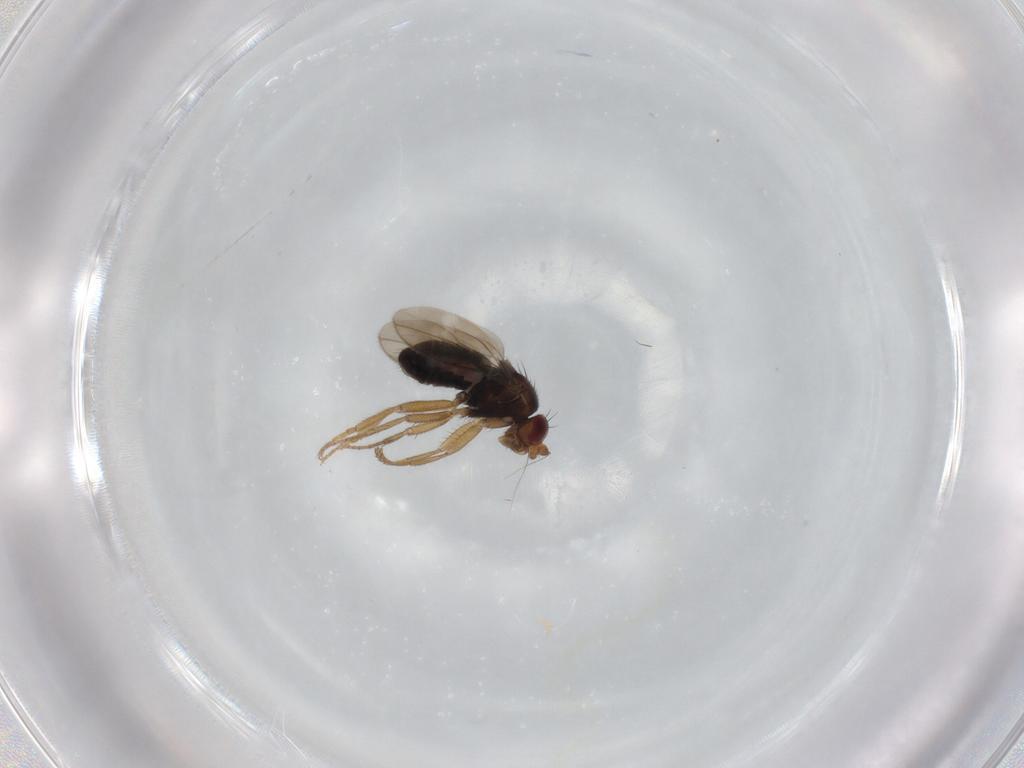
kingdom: Animalia
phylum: Arthropoda
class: Insecta
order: Diptera
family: Sphaeroceridae
